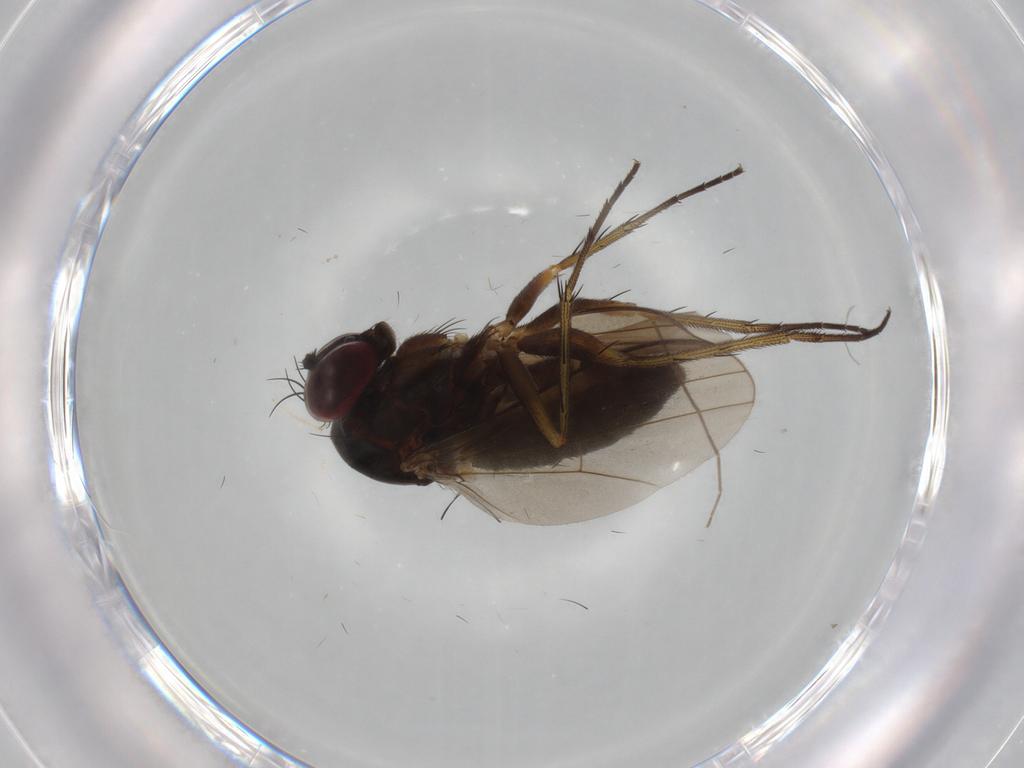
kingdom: Animalia
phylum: Arthropoda
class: Insecta
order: Diptera
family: Dolichopodidae
